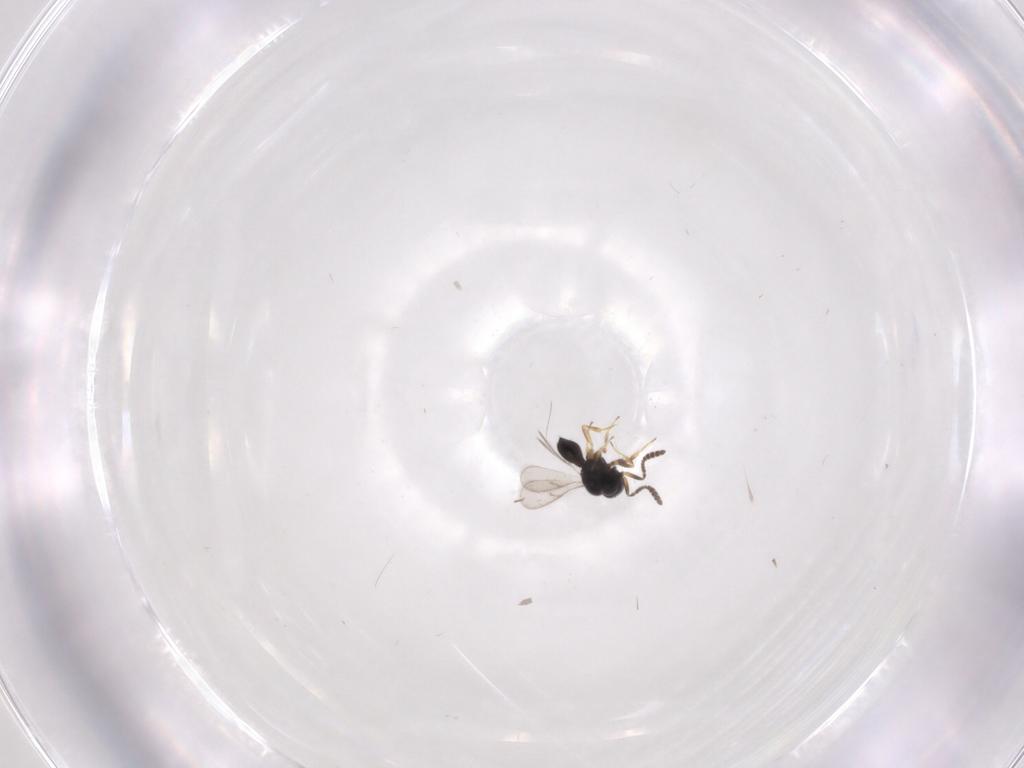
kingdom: Animalia
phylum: Arthropoda
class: Insecta
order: Hymenoptera
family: Scelionidae
